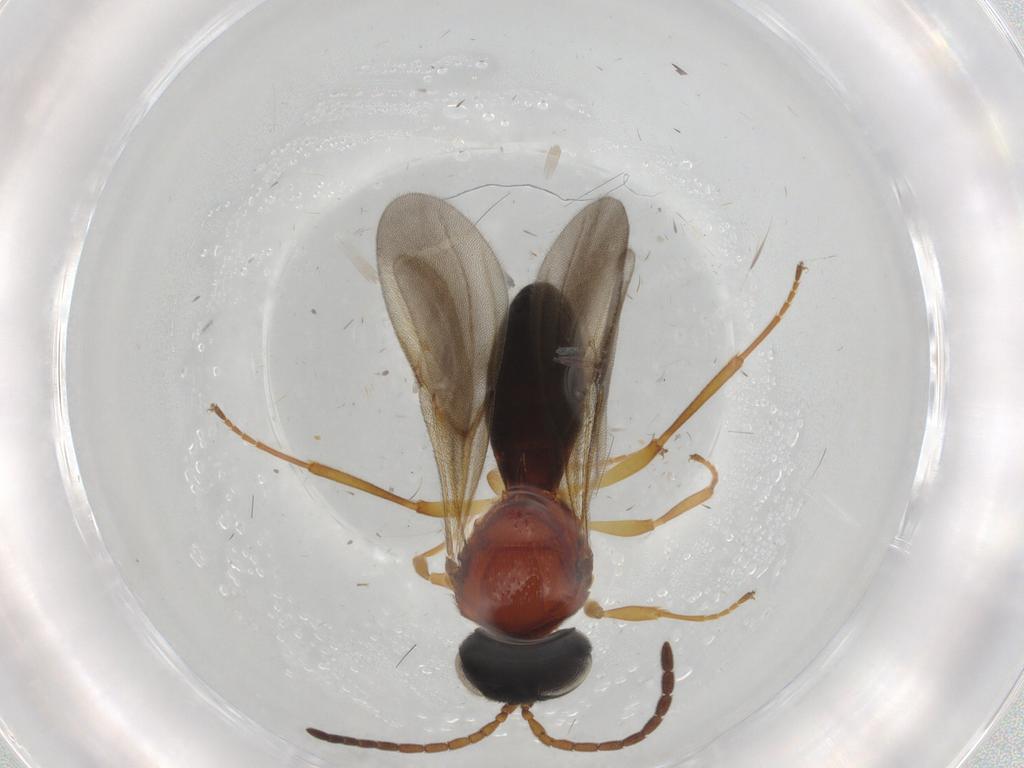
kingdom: Animalia
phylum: Arthropoda
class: Insecta
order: Hymenoptera
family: Scelionidae
